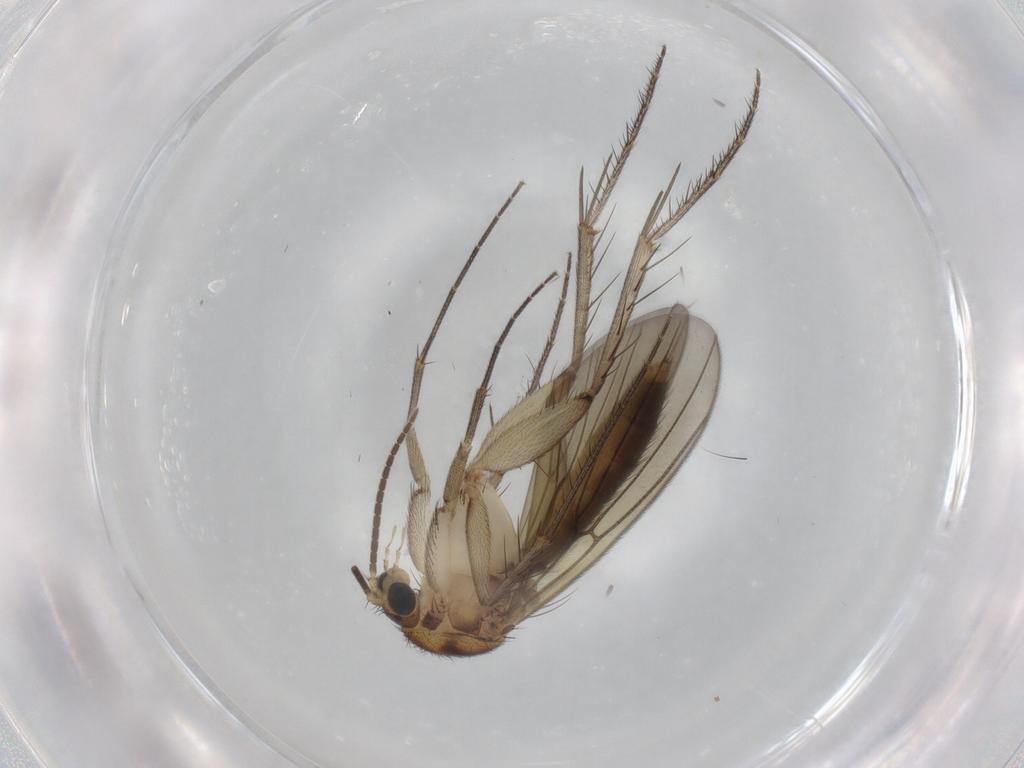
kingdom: Animalia
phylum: Arthropoda
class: Insecta
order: Diptera
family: Mycetophilidae
